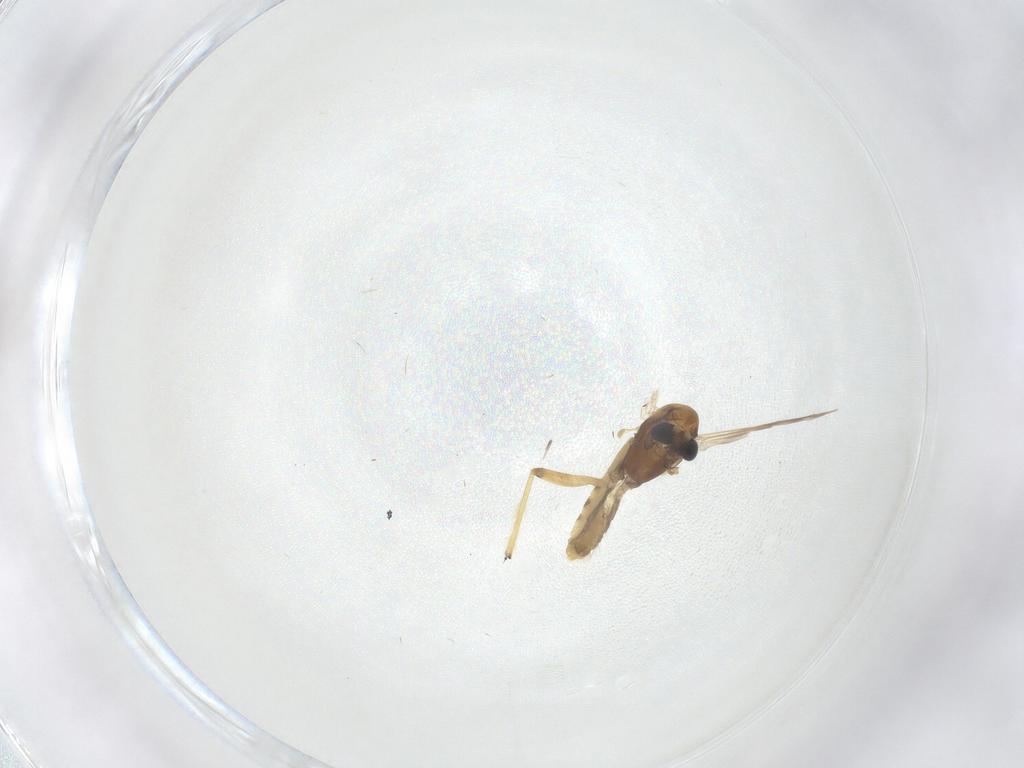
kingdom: Animalia
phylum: Arthropoda
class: Insecta
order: Diptera
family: Chironomidae
